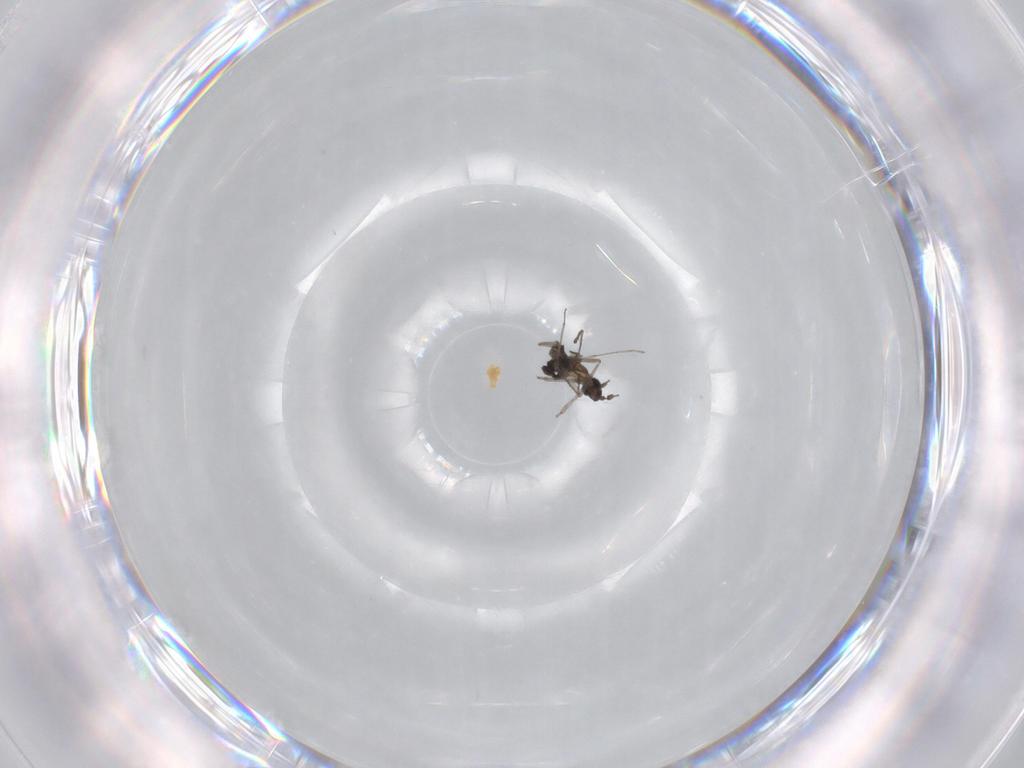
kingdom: Animalia
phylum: Arthropoda
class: Insecta
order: Diptera
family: Cecidomyiidae
